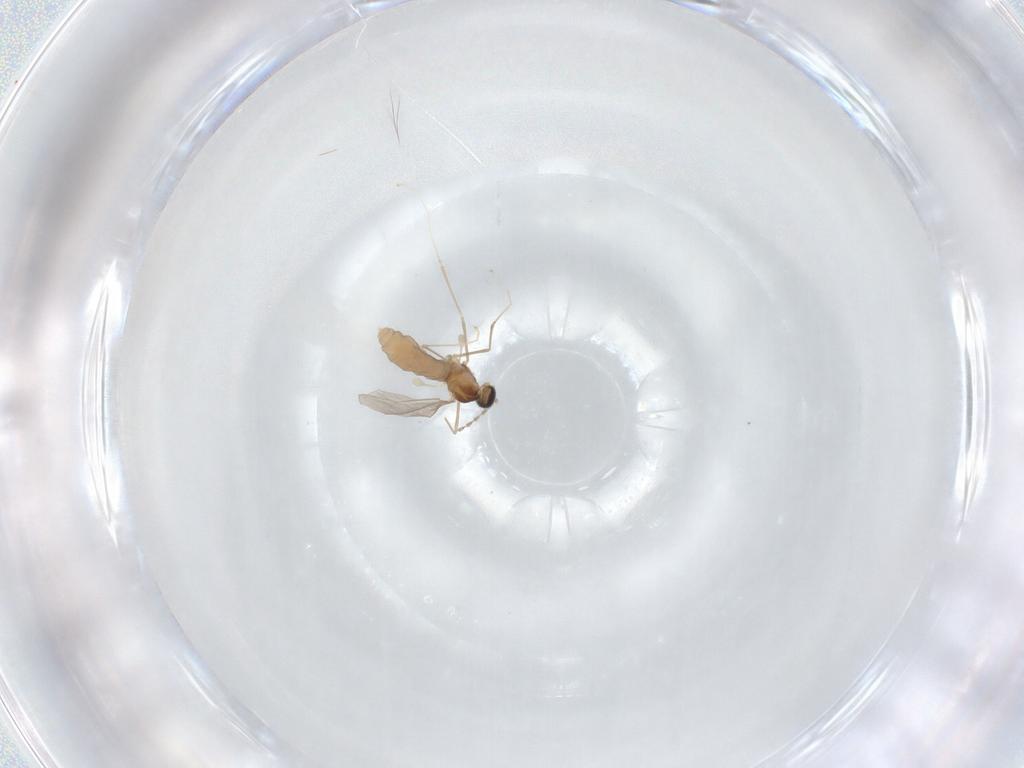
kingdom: Animalia
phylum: Arthropoda
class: Insecta
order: Diptera
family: Cecidomyiidae
